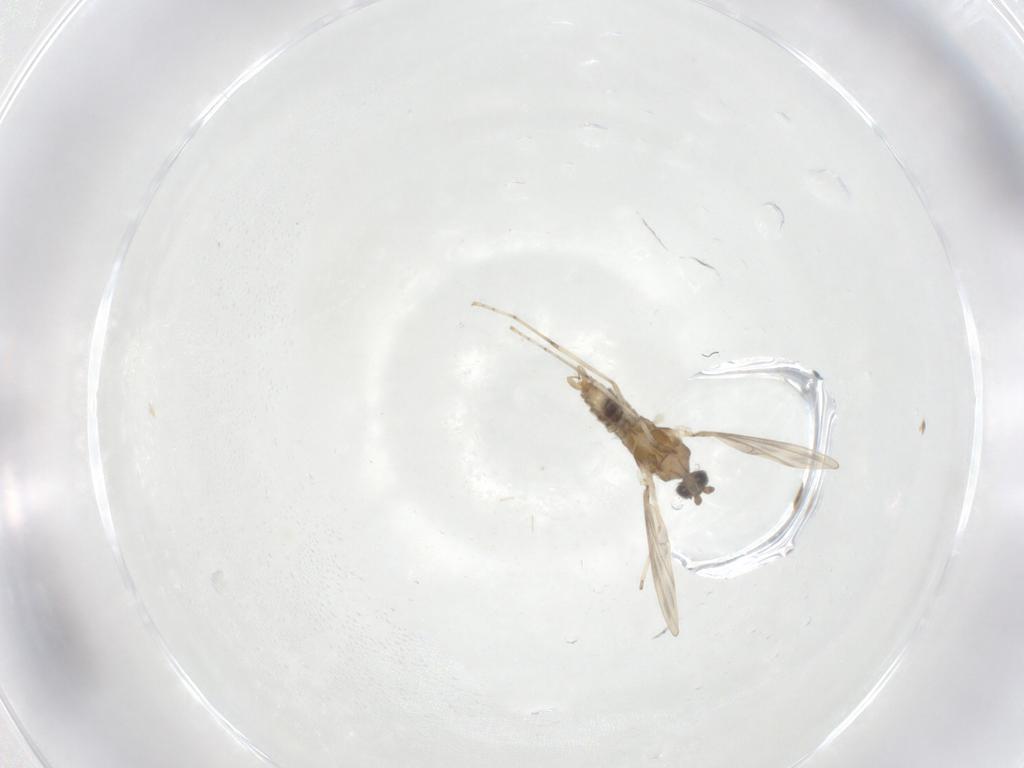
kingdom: Animalia
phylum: Arthropoda
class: Insecta
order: Diptera
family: Cecidomyiidae
